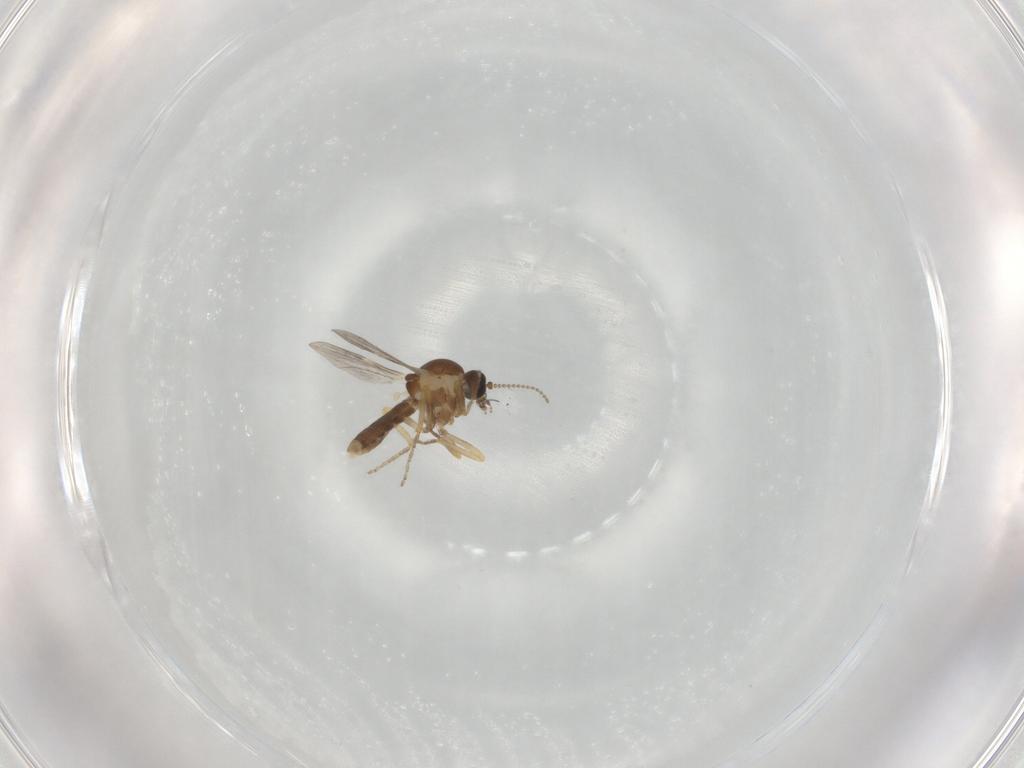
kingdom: Animalia
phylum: Arthropoda
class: Insecta
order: Diptera
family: Ceratopogonidae
